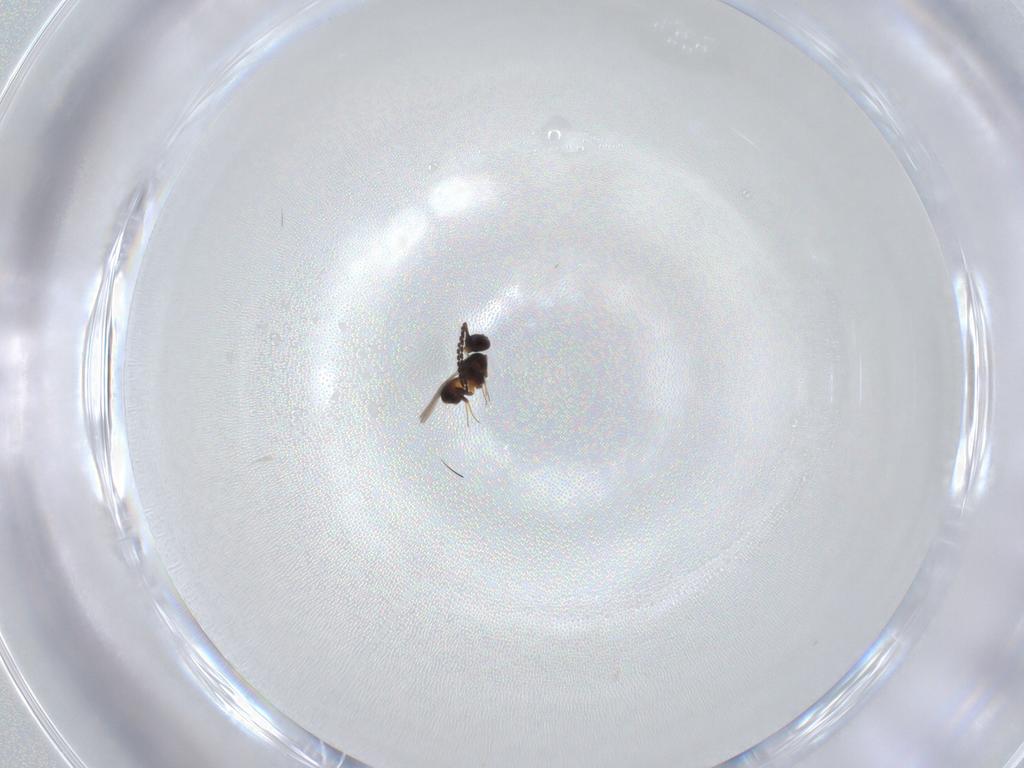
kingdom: Animalia
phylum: Arthropoda
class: Insecta
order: Hymenoptera
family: Ceraphronidae
